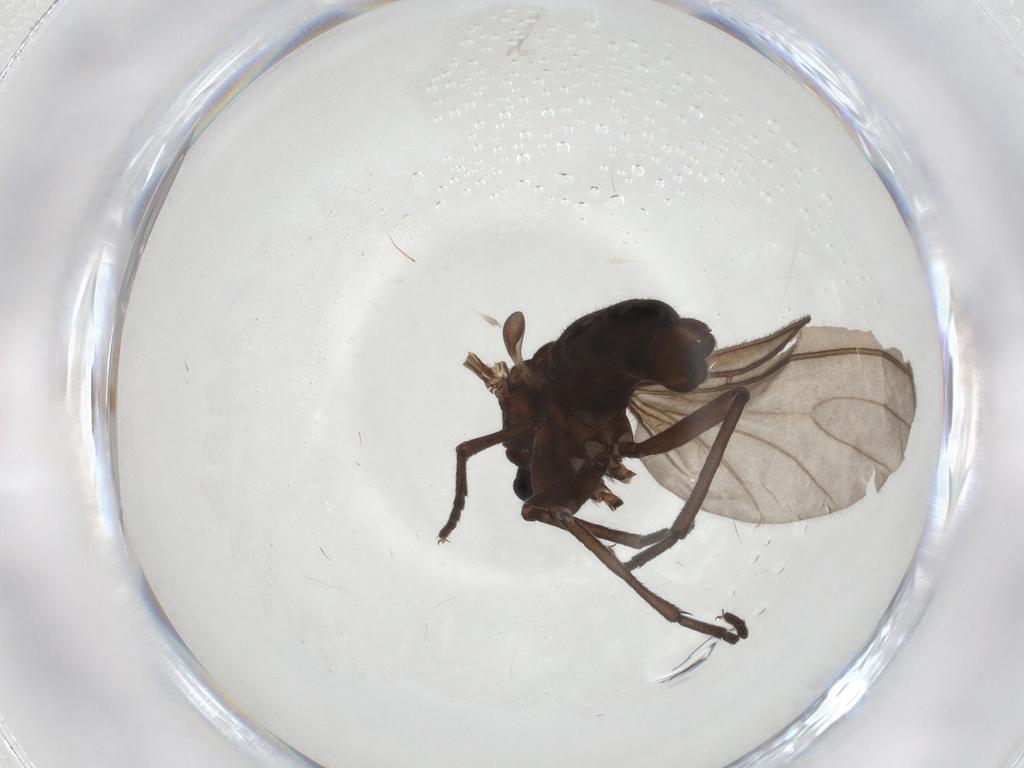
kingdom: Animalia
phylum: Arthropoda
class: Insecta
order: Diptera
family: Sciaridae
